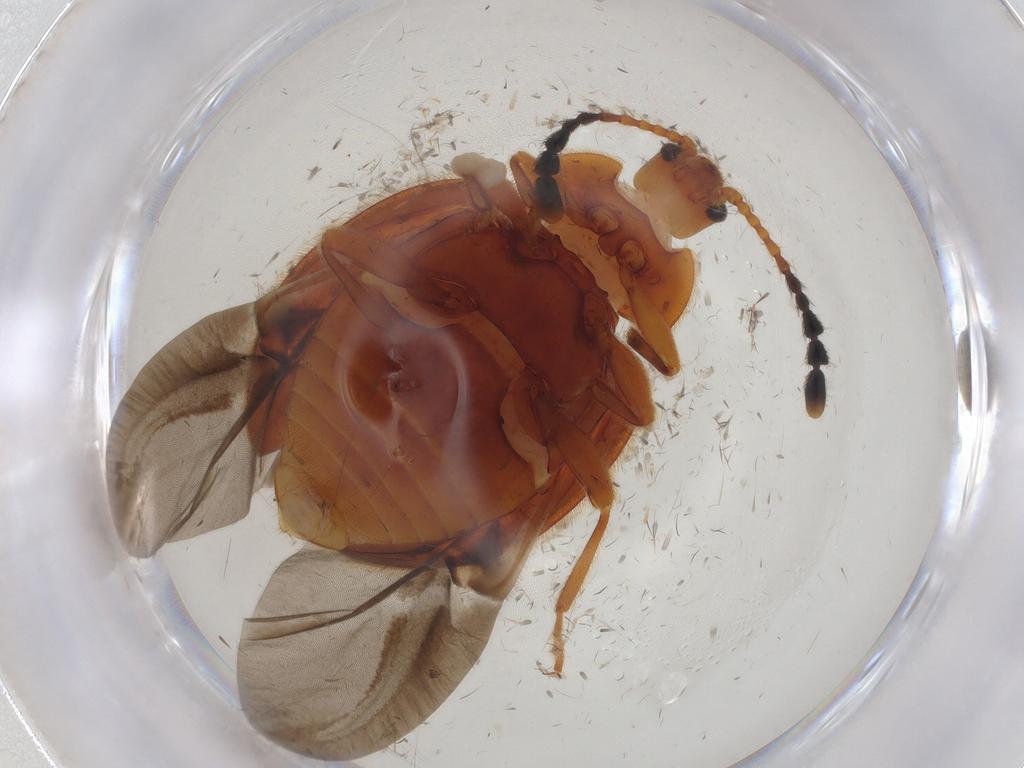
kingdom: Animalia
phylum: Arthropoda
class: Insecta
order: Coleoptera
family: Endomychidae
